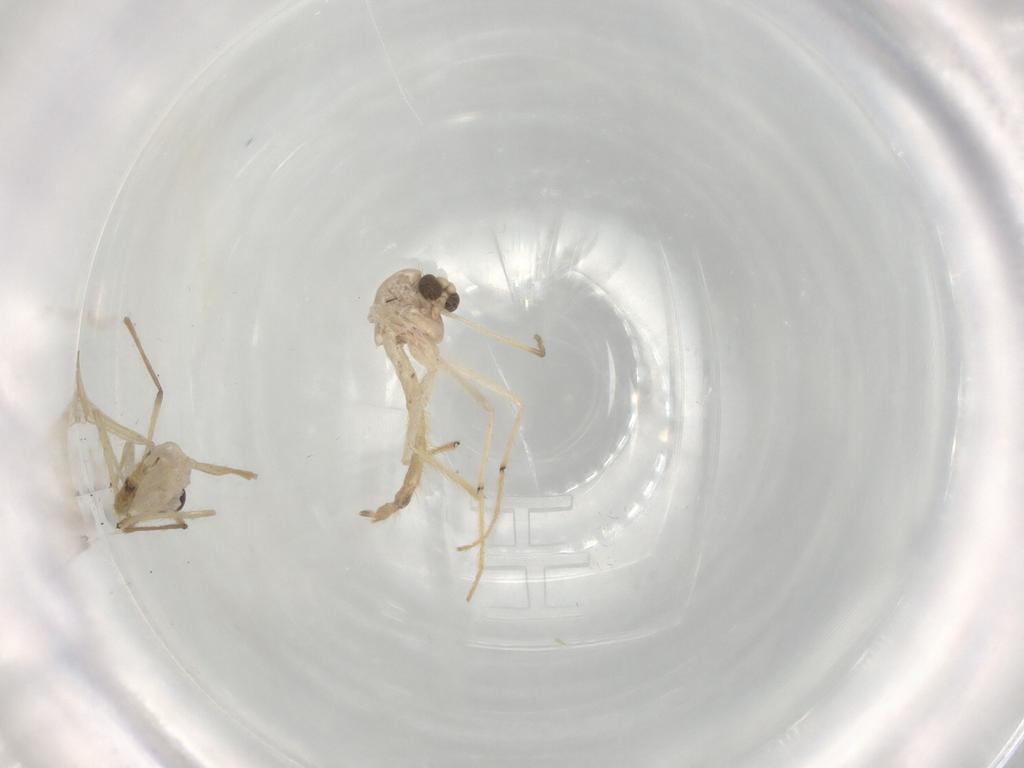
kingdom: Animalia
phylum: Arthropoda
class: Insecta
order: Diptera
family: Chironomidae
